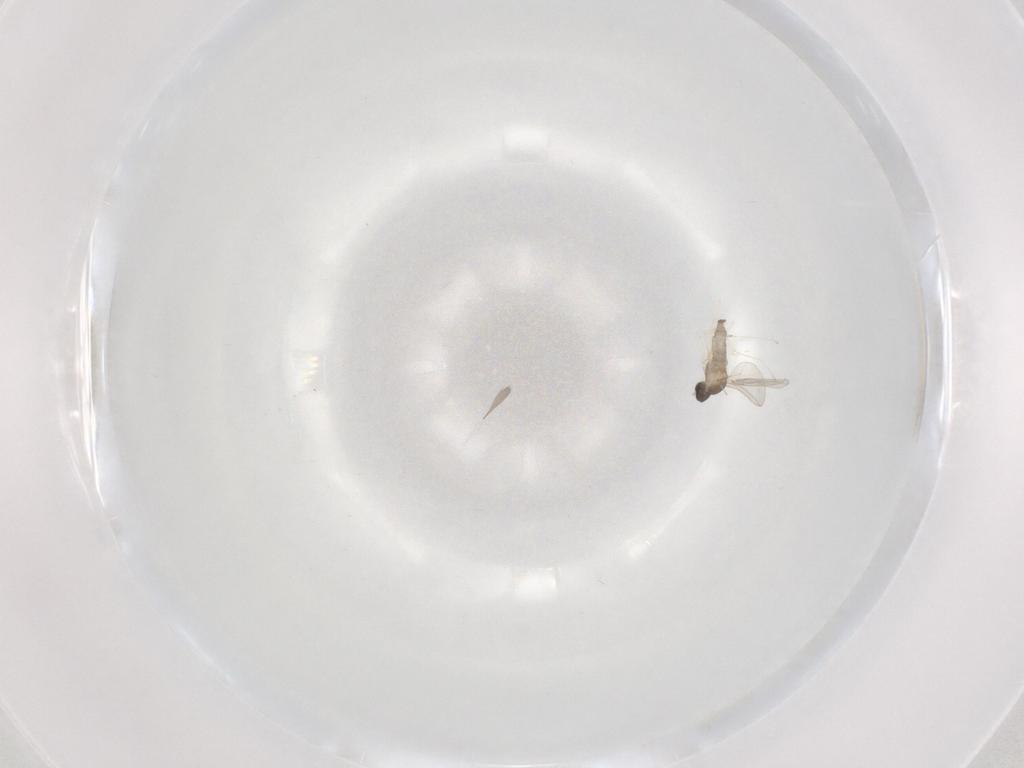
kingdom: Animalia
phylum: Arthropoda
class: Insecta
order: Diptera
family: Cecidomyiidae
